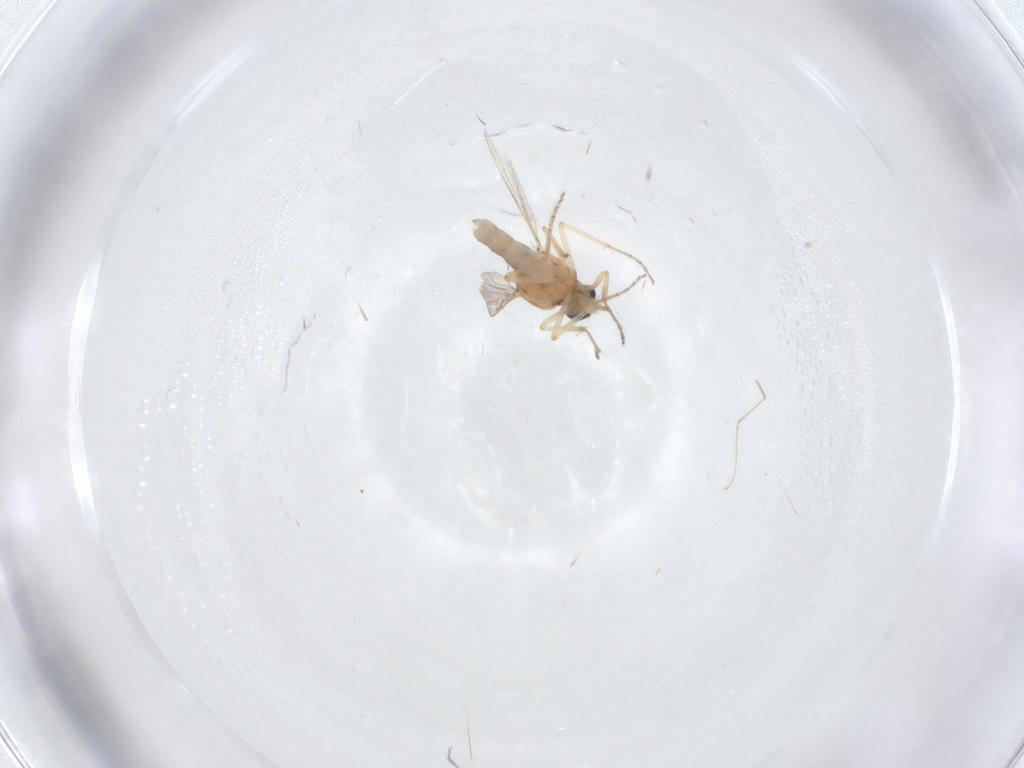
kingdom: Animalia
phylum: Arthropoda
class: Insecta
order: Diptera
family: Ceratopogonidae
